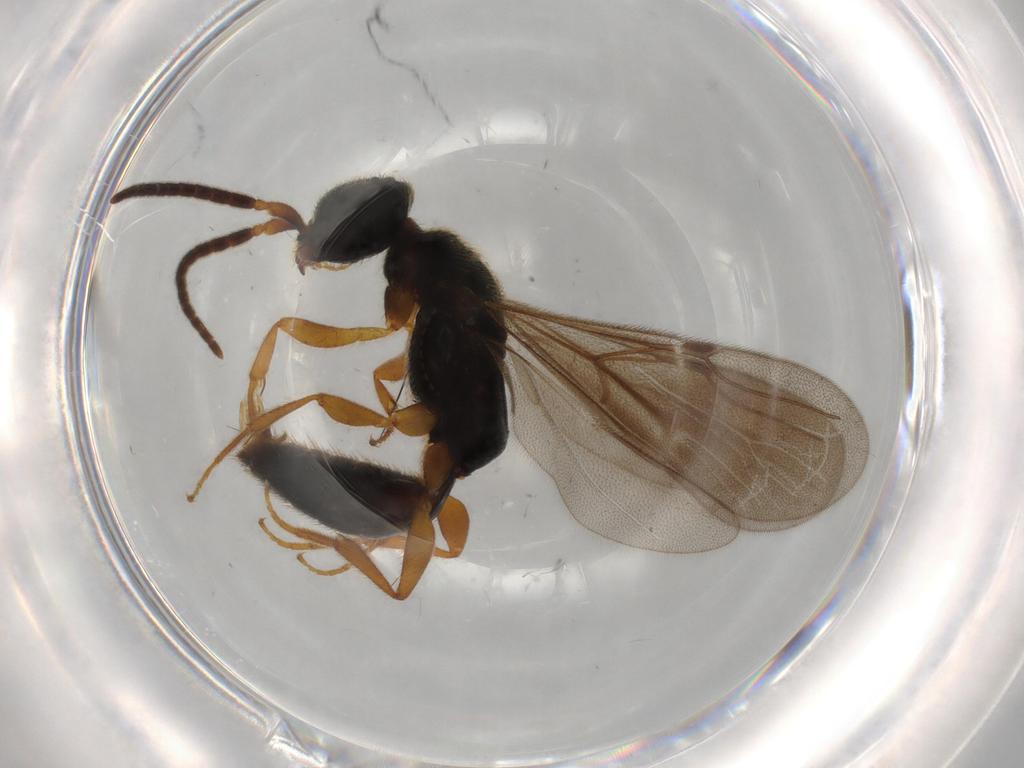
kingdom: Animalia
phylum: Arthropoda
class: Insecta
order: Hymenoptera
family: Bethylidae
